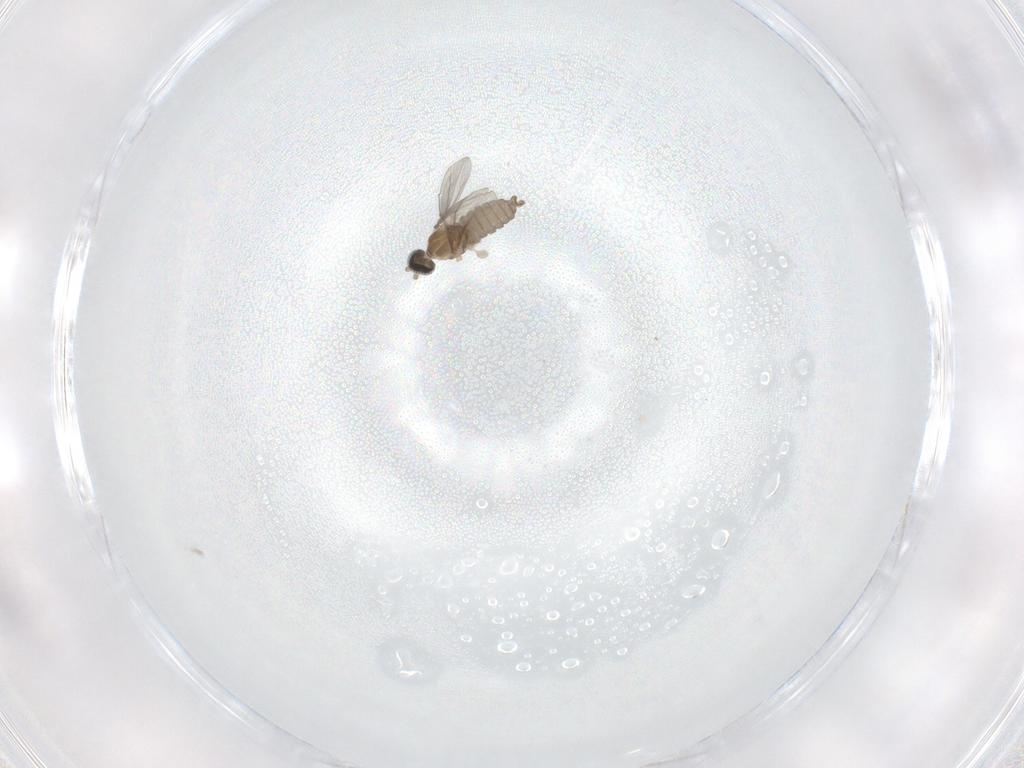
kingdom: Animalia
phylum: Arthropoda
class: Insecta
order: Diptera
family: Cecidomyiidae
